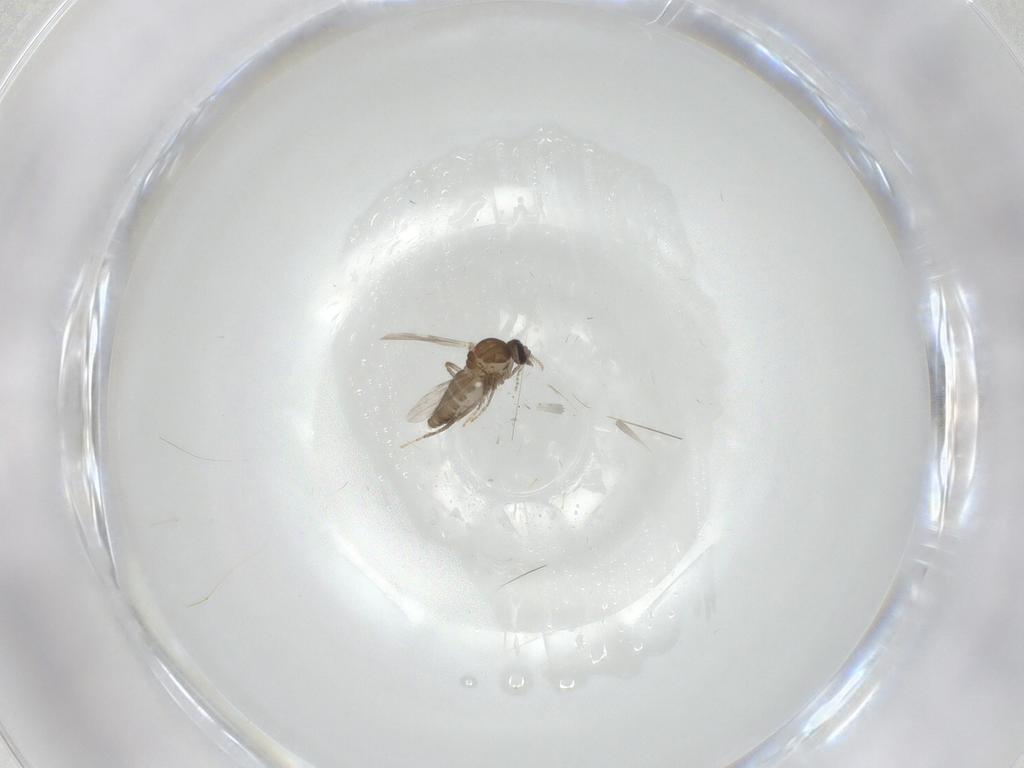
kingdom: Animalia
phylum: Arthropoda
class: Insecta
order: Diptera
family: Ceratopogonidae
